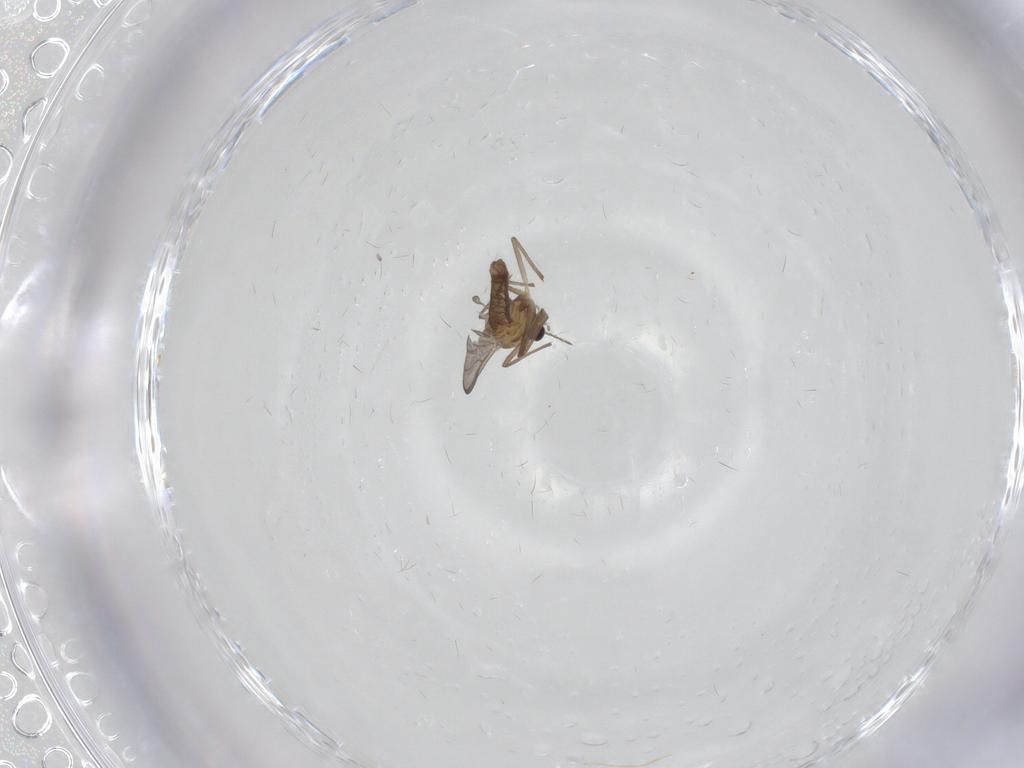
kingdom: Animalia
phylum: Arthropoda
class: Insecta
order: Diptera
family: Chironomidae
